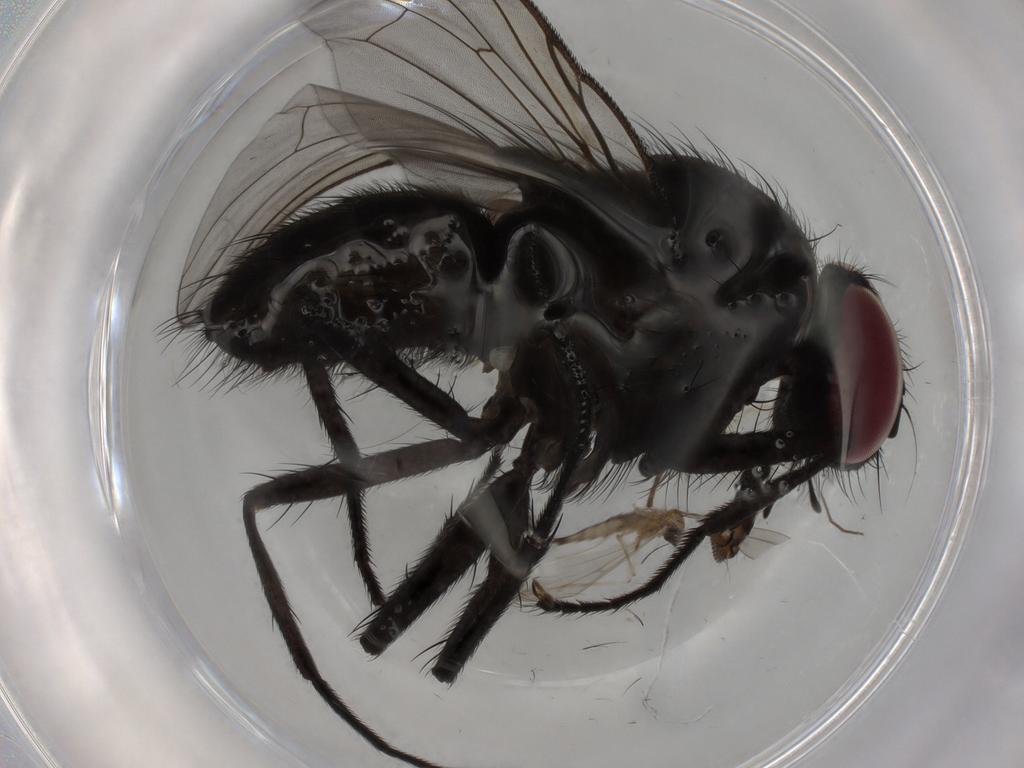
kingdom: Animalia
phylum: Arthropoda
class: Insecta
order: Diptera
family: Muscidae
